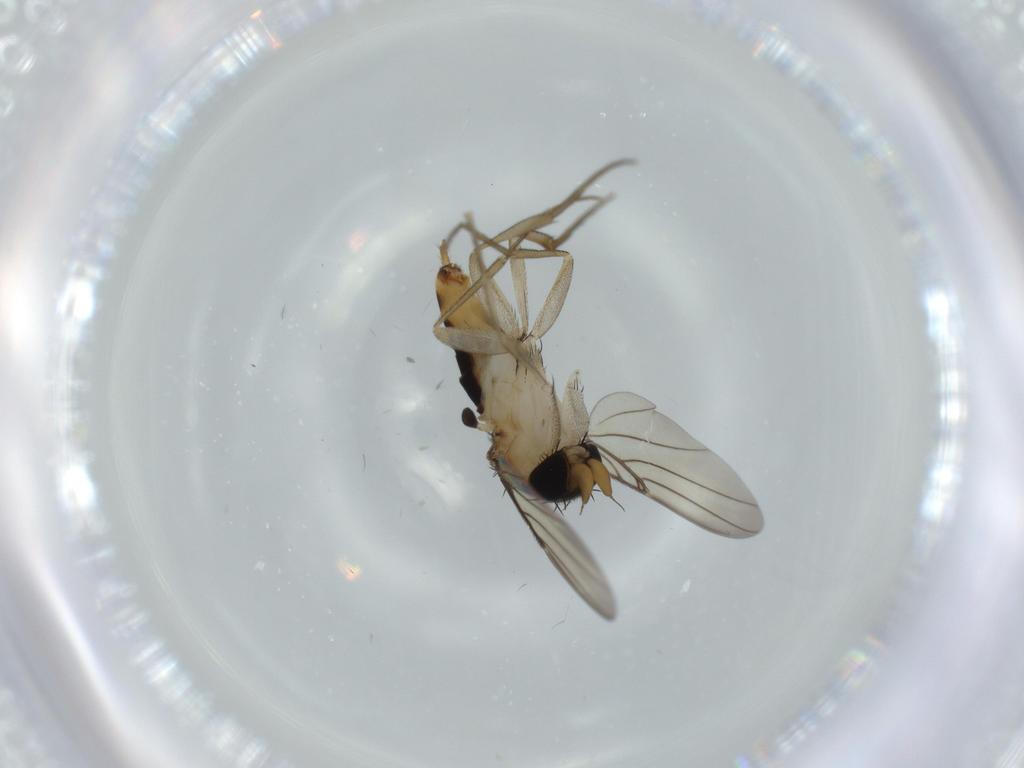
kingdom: Animalia
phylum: Arthropoda
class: Insecta
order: Diptera
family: Phoridae
